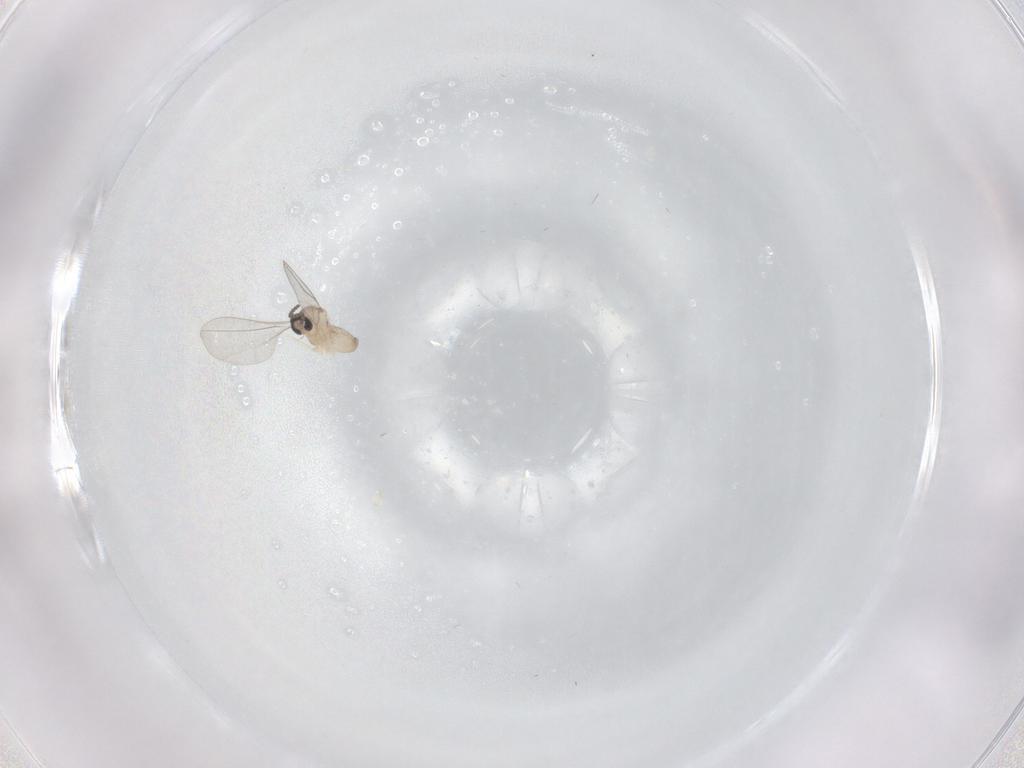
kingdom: Animalia
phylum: Arthropoda
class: Insecta
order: Diptera
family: Cecidomyiidae
